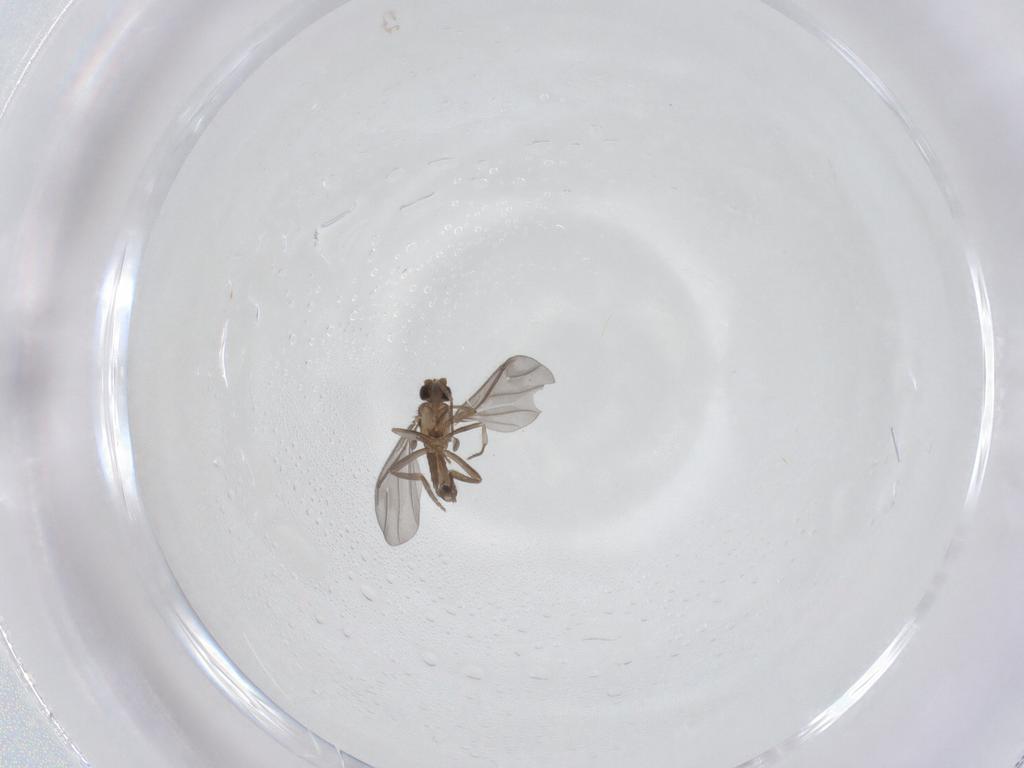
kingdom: Animalia
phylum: Arthropoda
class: Insecta
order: Diptera
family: Phoridae
